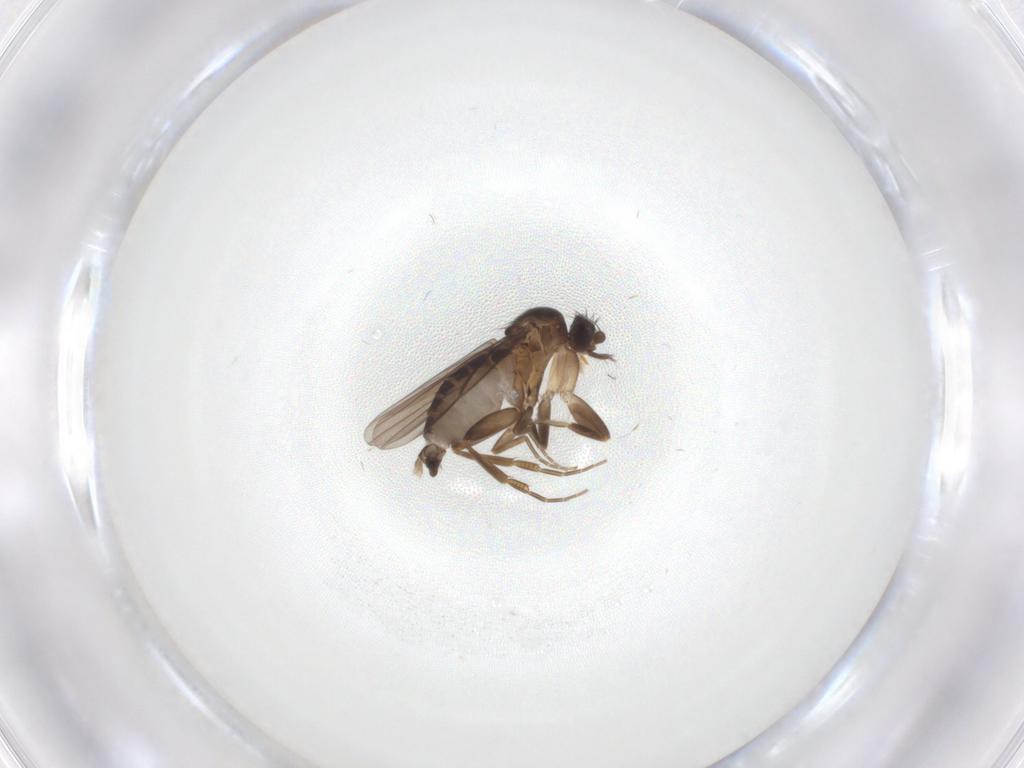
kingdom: Animalia
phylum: Arthropoda
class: Insecta
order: Diptera
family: Phoridae
